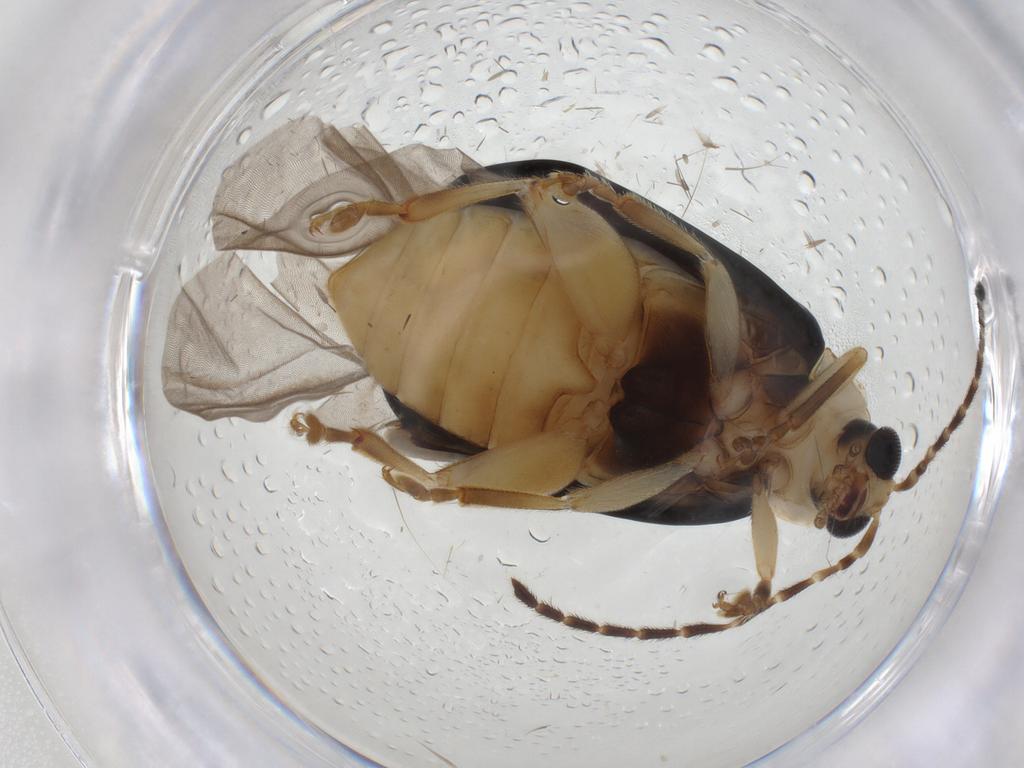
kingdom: Animalia
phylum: Arthropoda
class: Insecta
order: Coleoptera
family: Chrysomelidae
